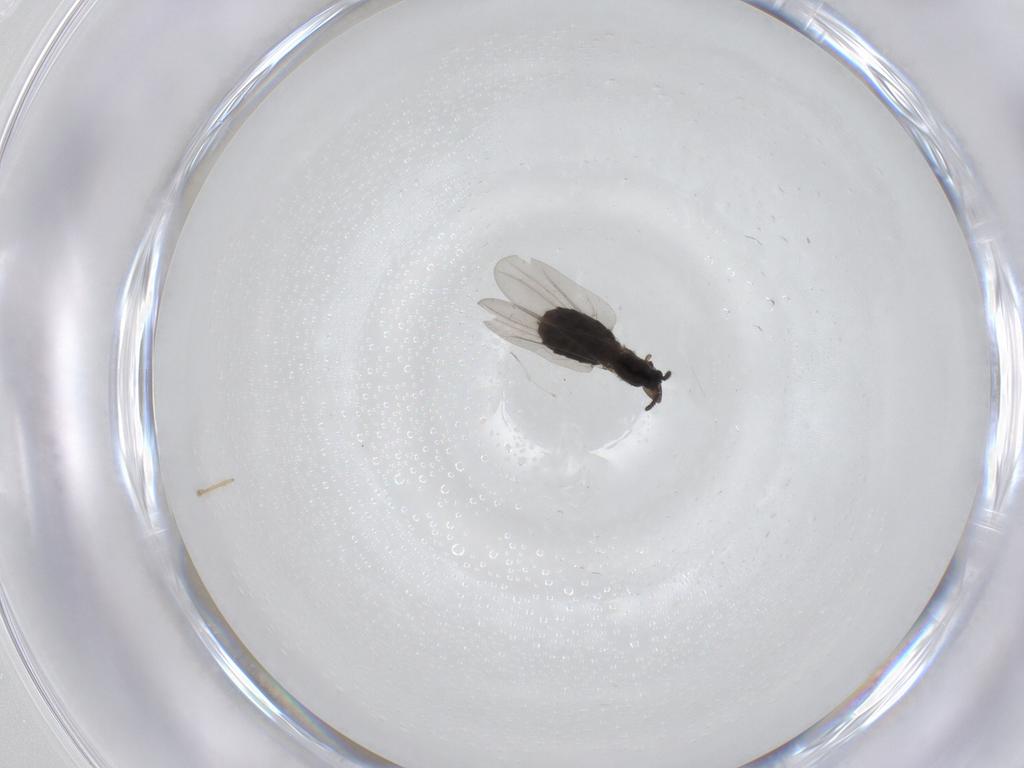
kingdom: Animalia
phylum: Arthropoda
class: Insecta
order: Diptera
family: Scatopsidae
